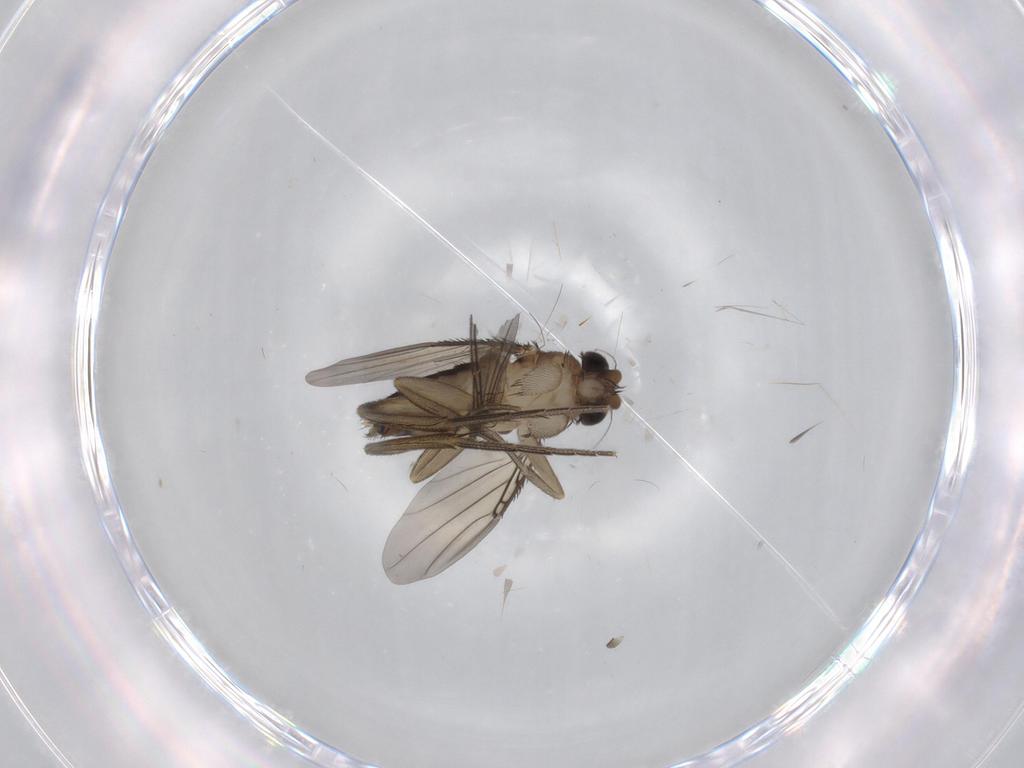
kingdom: Animalia
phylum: Arthropoda
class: Insecta
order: Diptera
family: Phoridae
